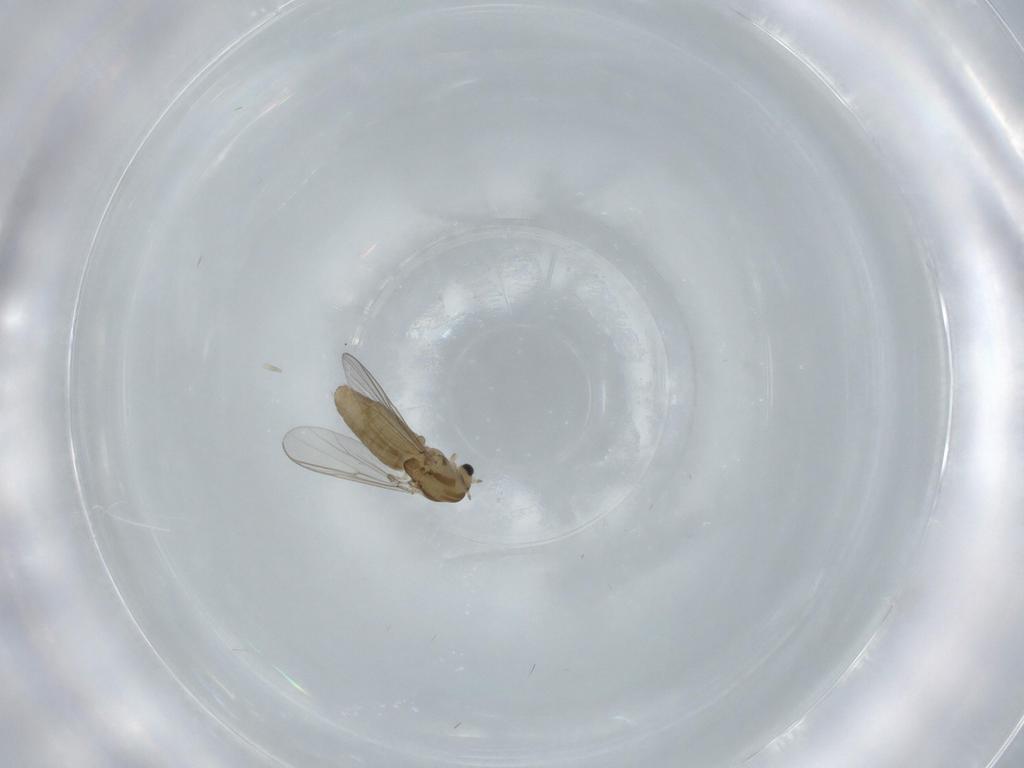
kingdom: Animalia
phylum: Arthropoda
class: Insecta
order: Diptera
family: Chironomidae
